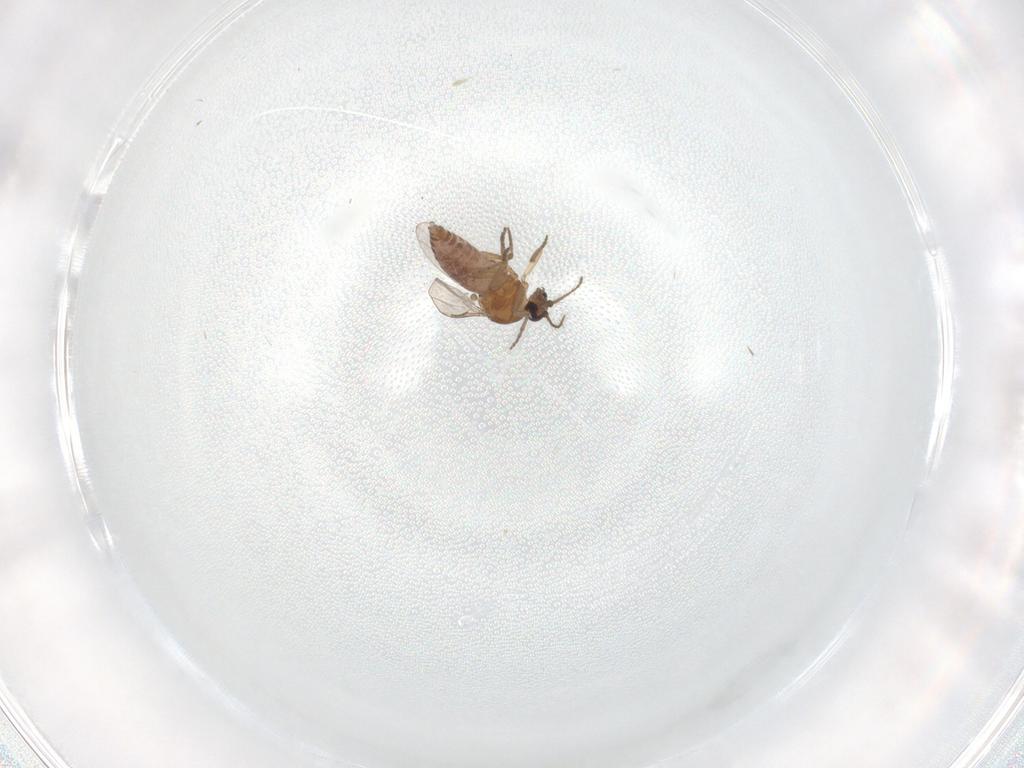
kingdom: Animalia
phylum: Arthropoda
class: Insecta
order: Diptera
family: Ceratopogonidae
